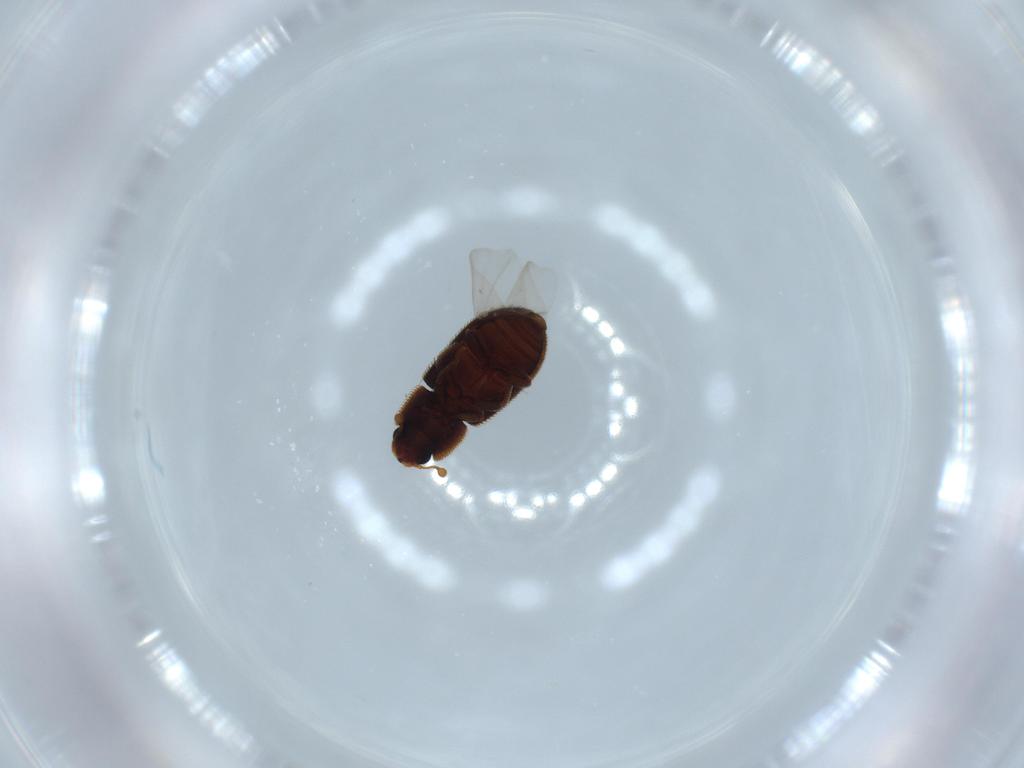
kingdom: Animalia
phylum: Arthropoda
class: Insecta
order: Coleoptera
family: Zopheridae
